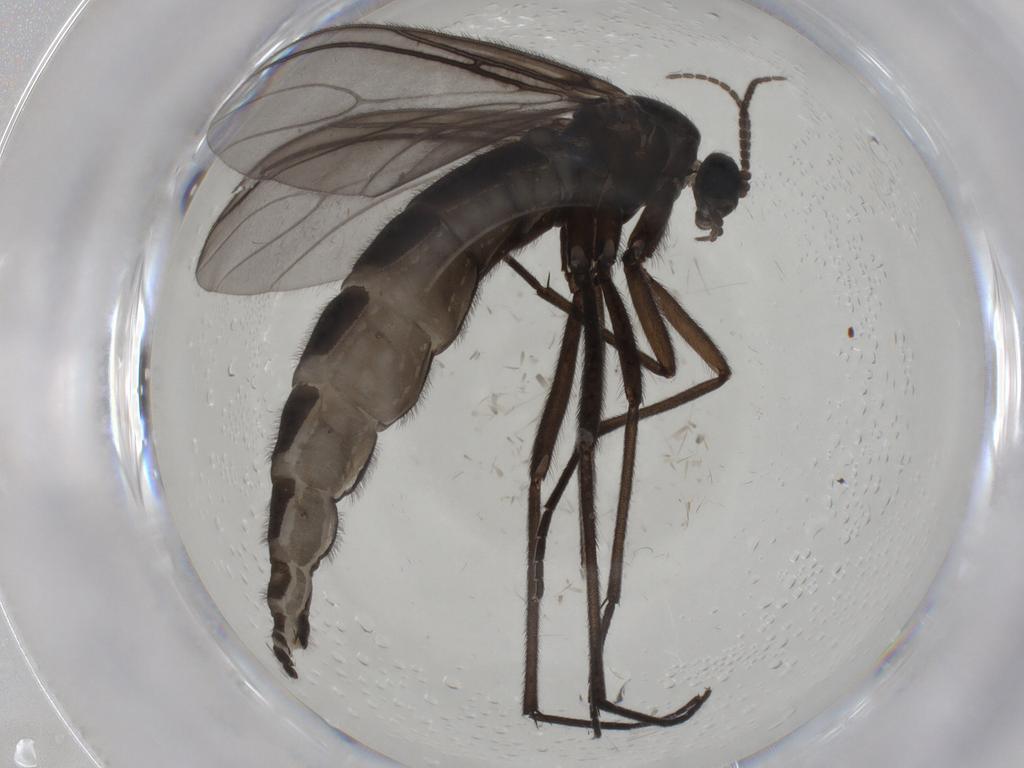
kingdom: Animalia
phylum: Arthropoda
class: Insecta
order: Diptera
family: Sciaridae
